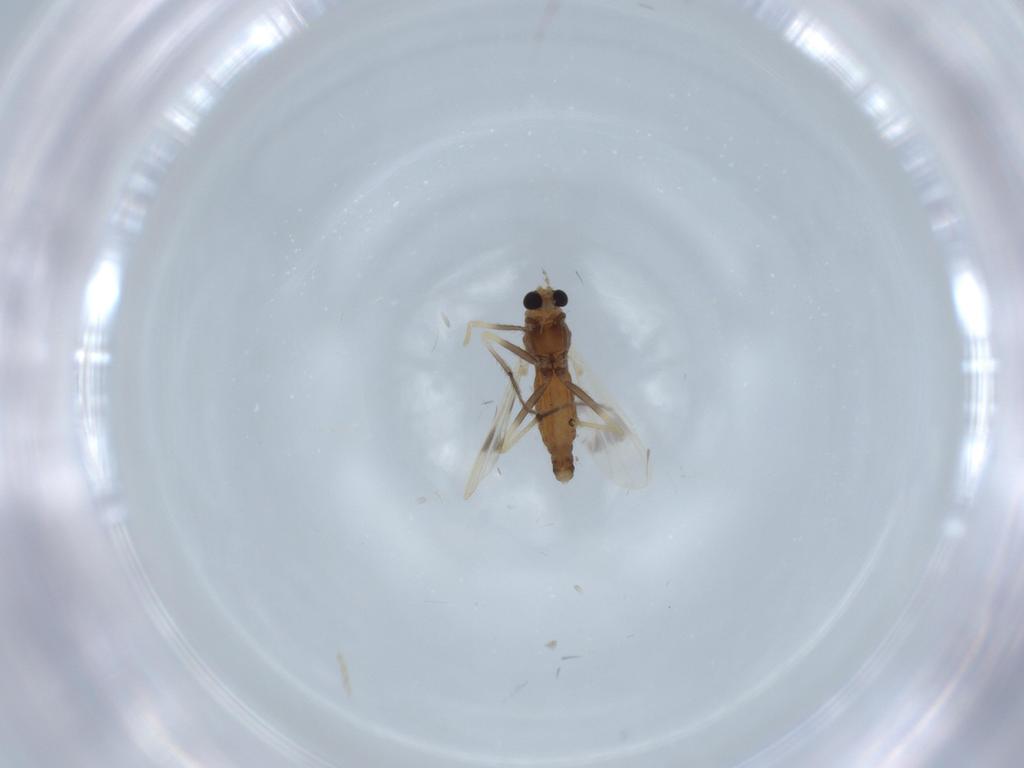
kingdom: Animalia
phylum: Arthropoda
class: Insecta
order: Diptera
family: Chironomidae
